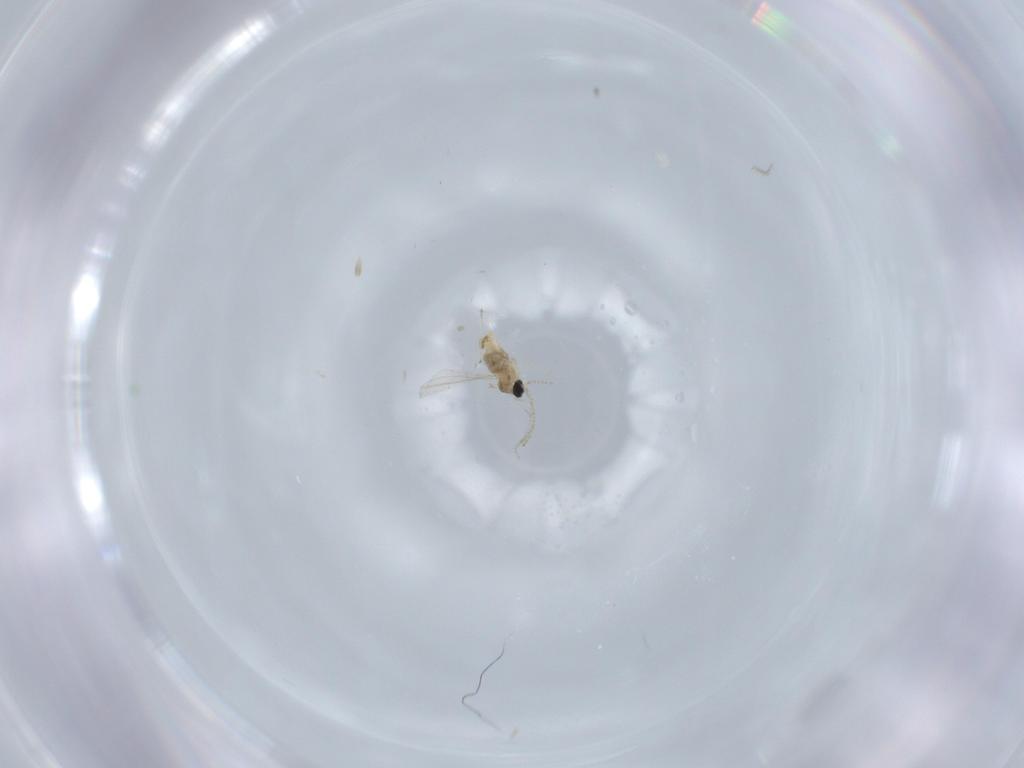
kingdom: Animalia
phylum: Arthropoda
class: Insecta
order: Diptera
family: Cecidomyiidae
